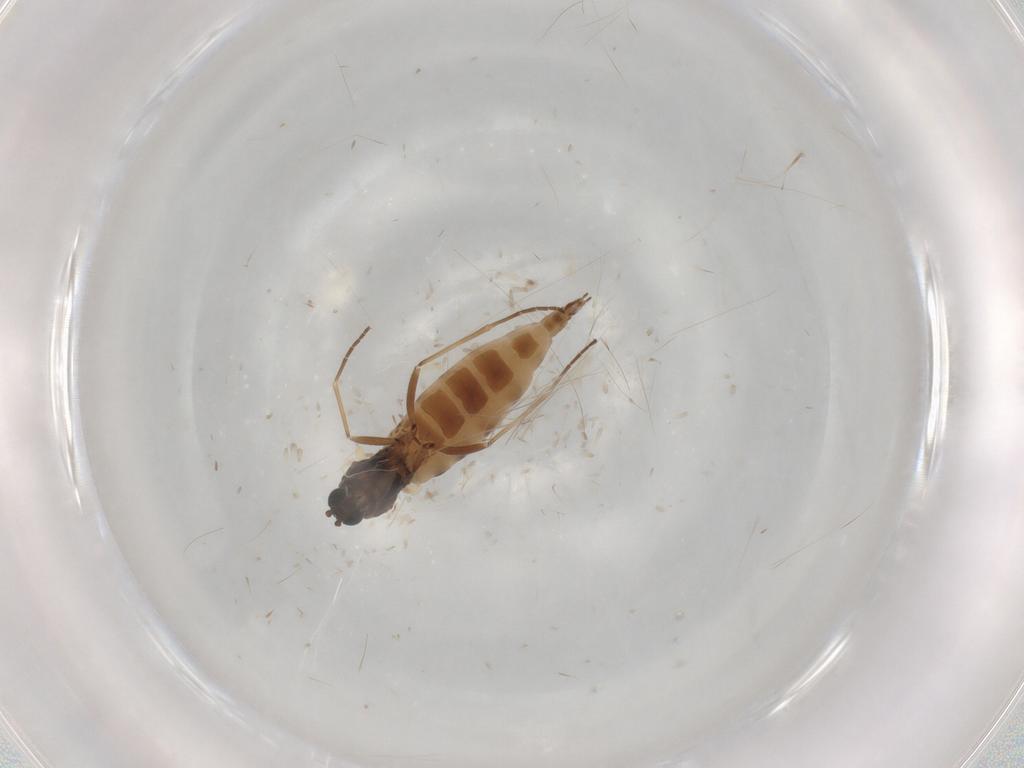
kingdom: Animalia
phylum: Arthropoda
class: Insecta
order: Diptera
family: Sciaridae
